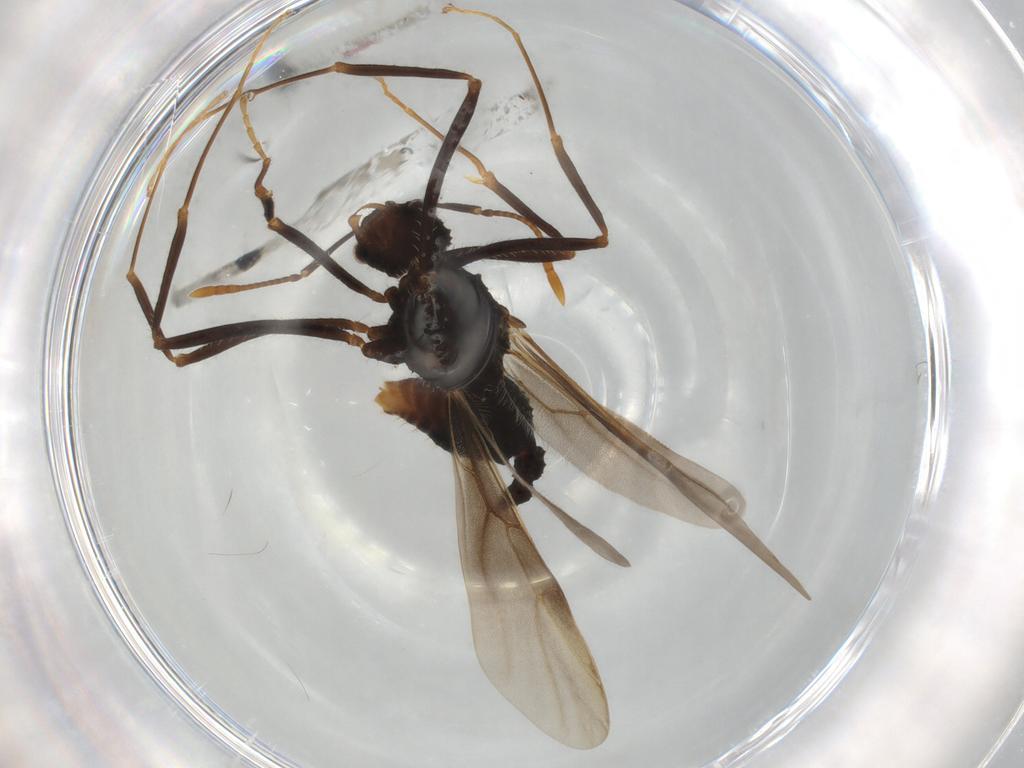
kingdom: Animalia
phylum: Arthropoda
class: Insecta
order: Hymenoptera
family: Formicidae
